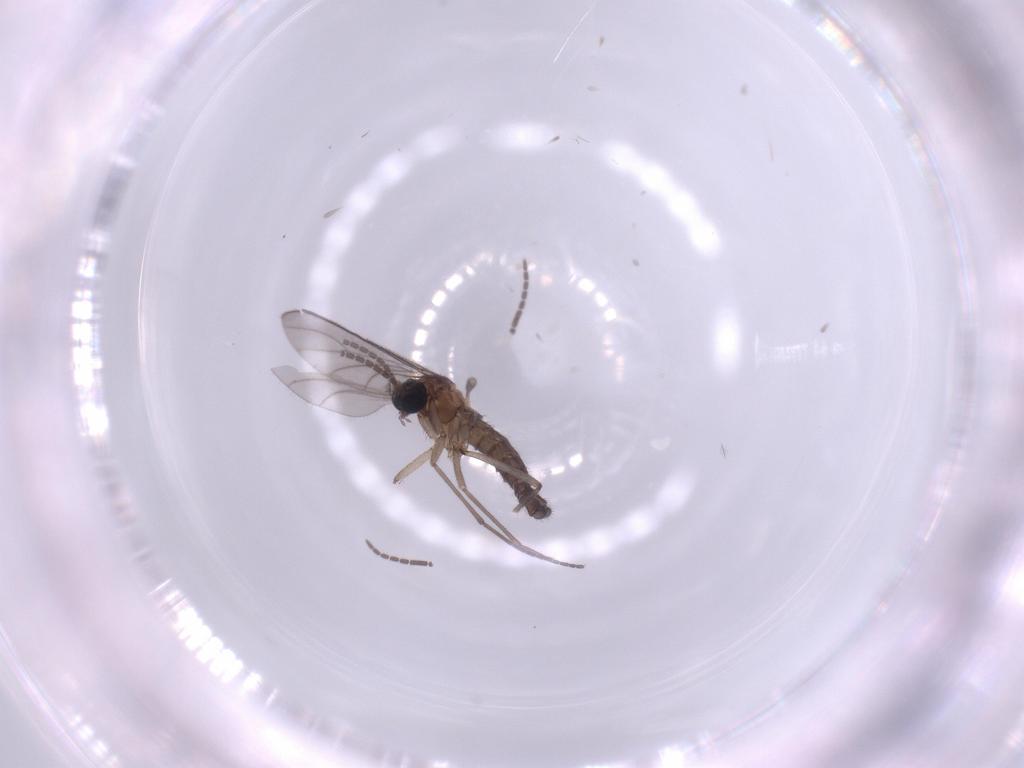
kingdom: Animalia
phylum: Arthropoda
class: Insecta
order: Diptera
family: Sciaridae
